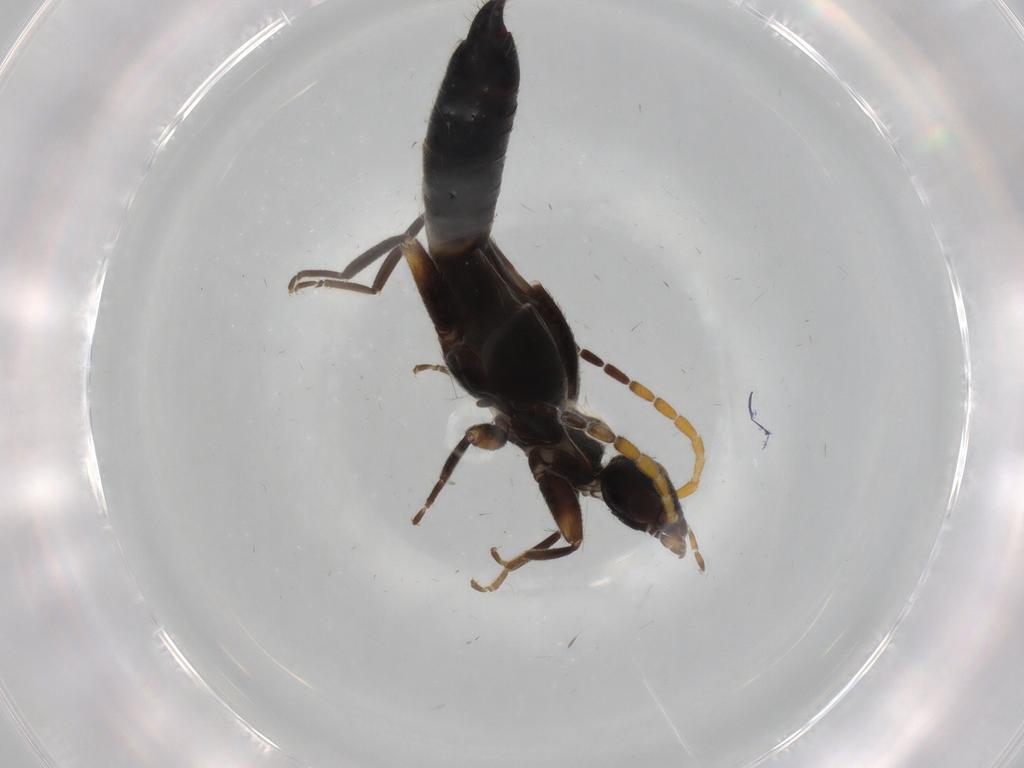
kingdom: Animalia
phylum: Arthropoda
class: Insecta
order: Dermaptera
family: Forficulidae
